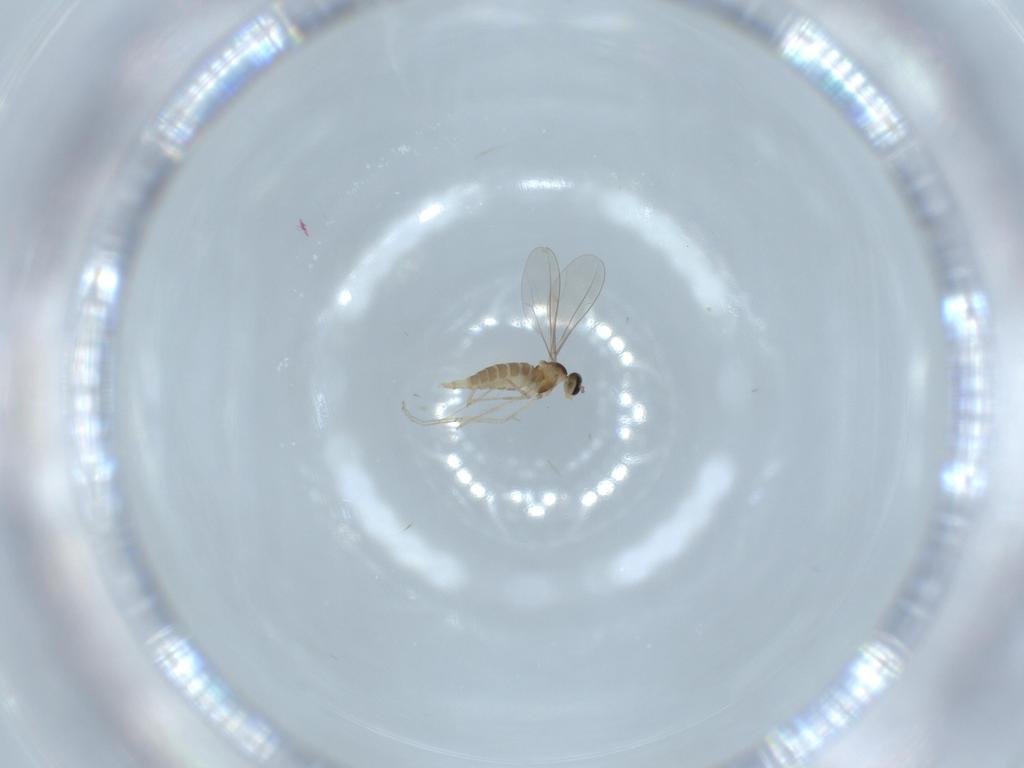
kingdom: Animalia
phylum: Arthropoda
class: Insecta
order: Diptera
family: Cecidomyiidae
